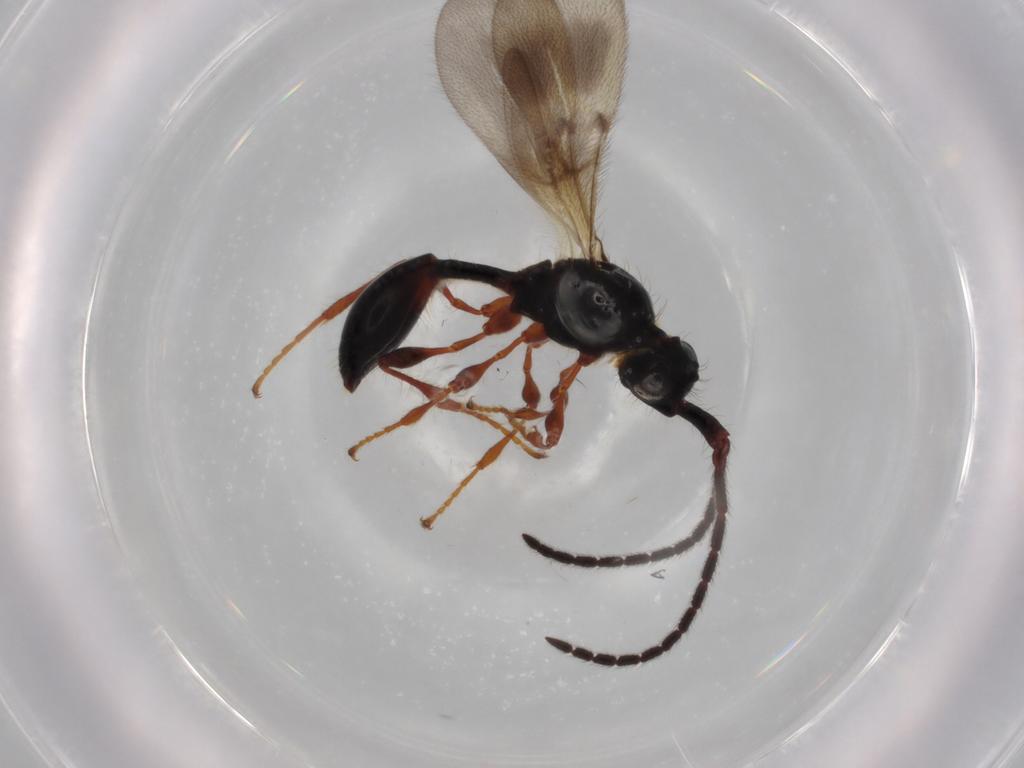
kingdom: Animalia
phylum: Arthropoda
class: Insecta
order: Hymenoptera
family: Diapriidae
